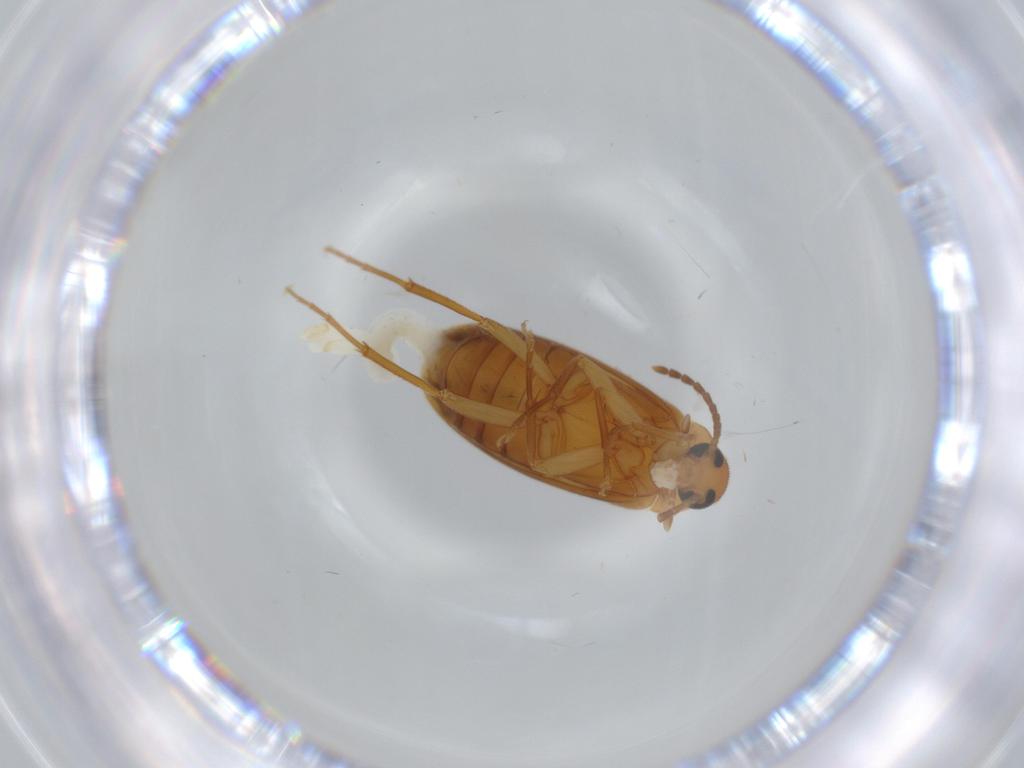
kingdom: Animalia
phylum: Arthropoda
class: Insecta
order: Coleoptera
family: Scraptiidae
